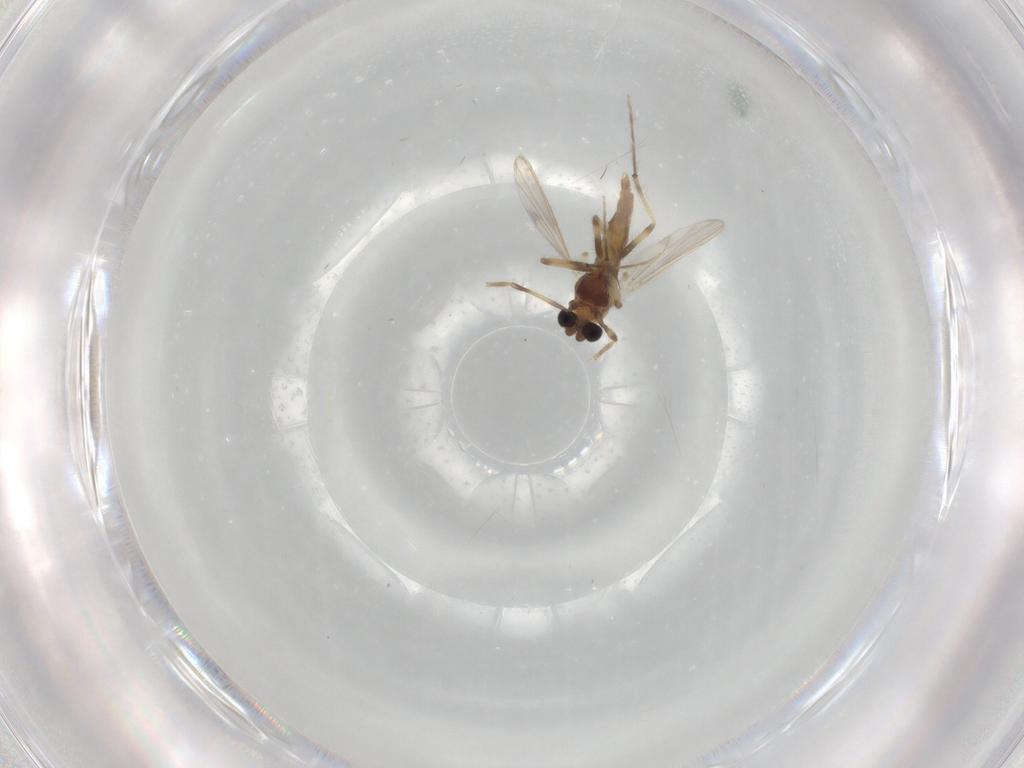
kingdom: Animalia
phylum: Arthropoda
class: Insecta
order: Diptera
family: Chironomidae
